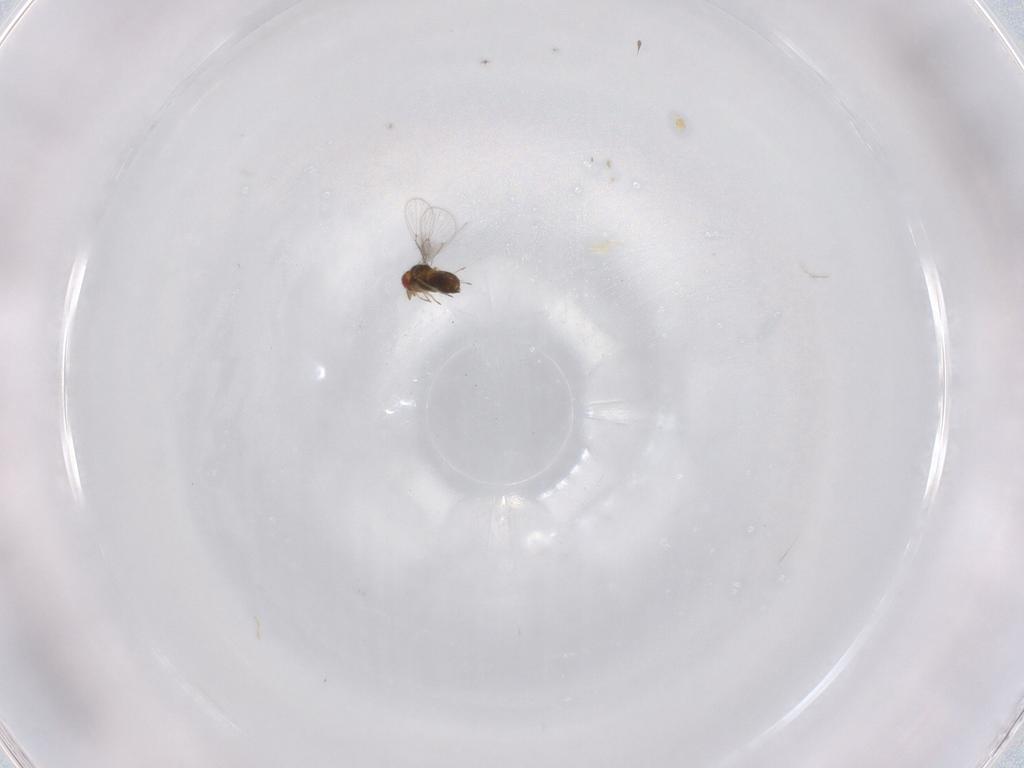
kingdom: Animalia
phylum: Arthropoda
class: Insecta
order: Hymenoptera
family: Trichogrammatidae
